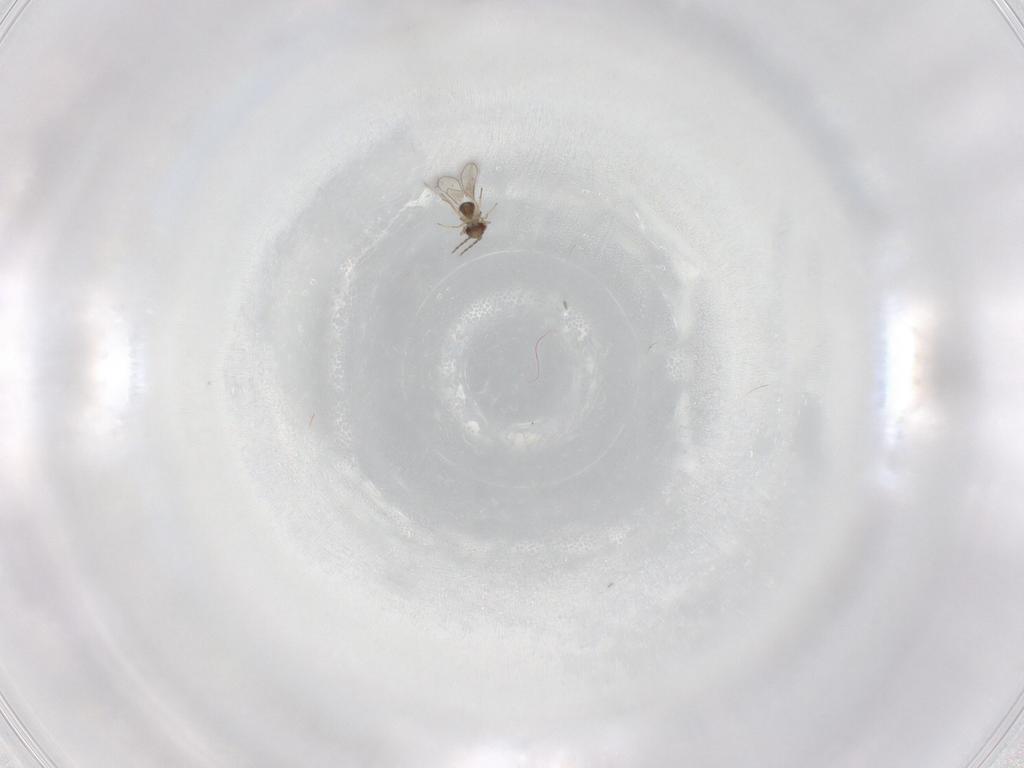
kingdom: Animalia
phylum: Arthropoda
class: Insecta
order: Hymenoptera
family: Eulophidae
